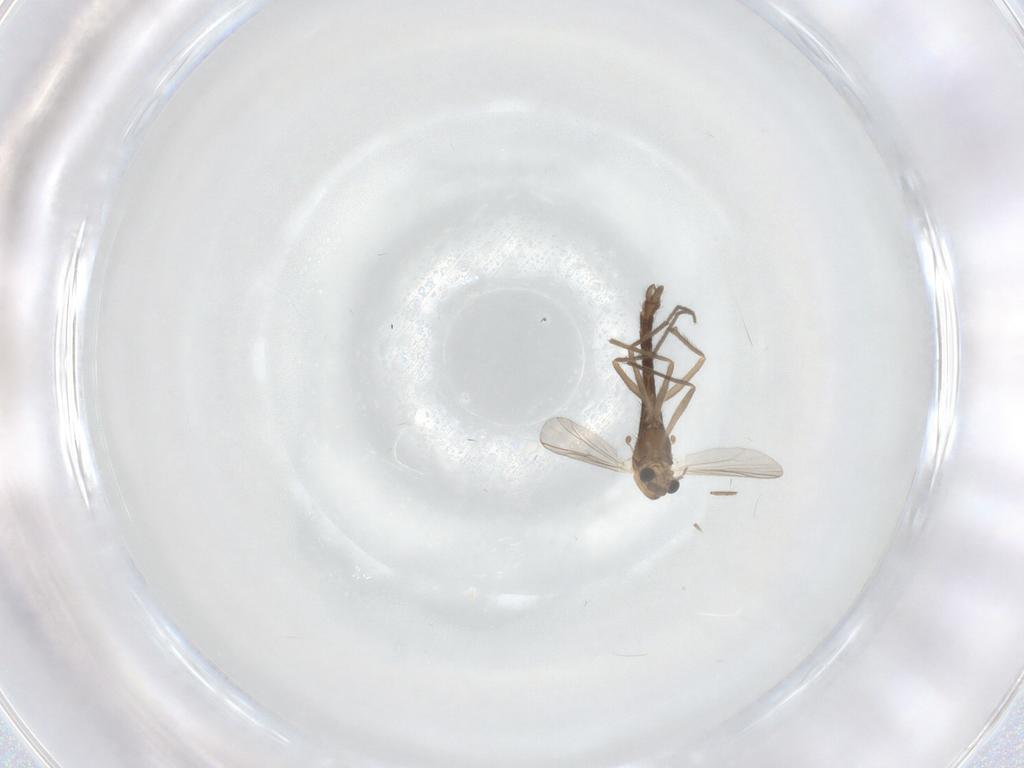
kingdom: Animalia
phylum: Arthropoda
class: Insecta
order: Diptera
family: Chironomidae
